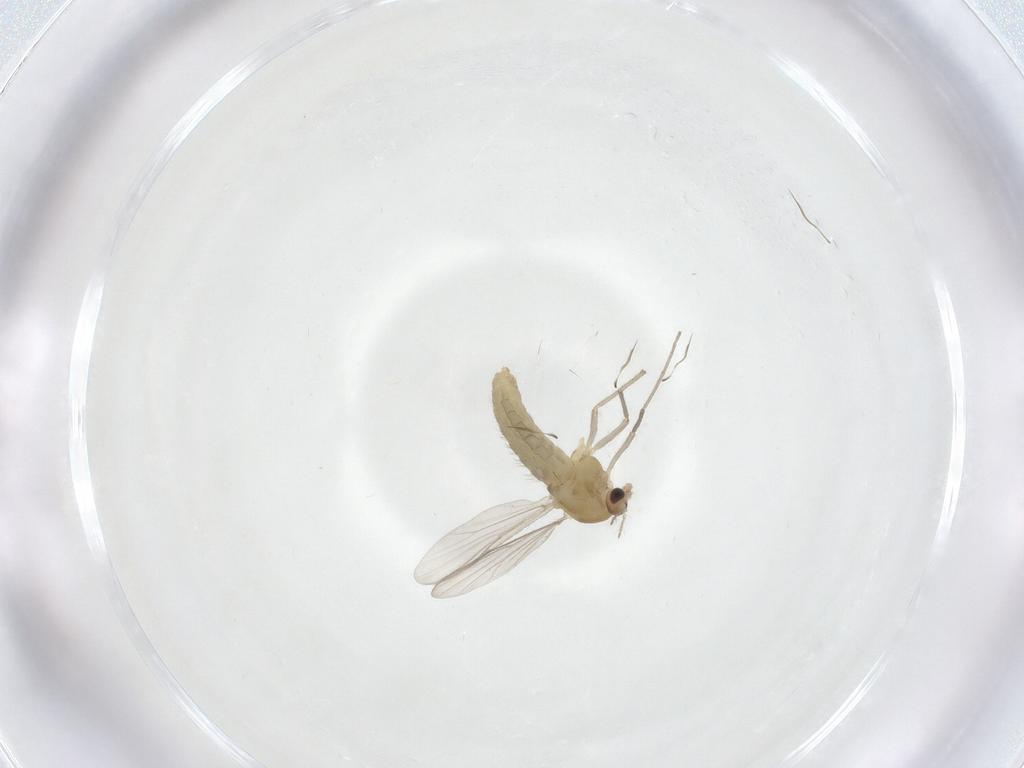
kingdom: Animalia
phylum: Arthropoda
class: Insecta
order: Diptera
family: Chironomidae
